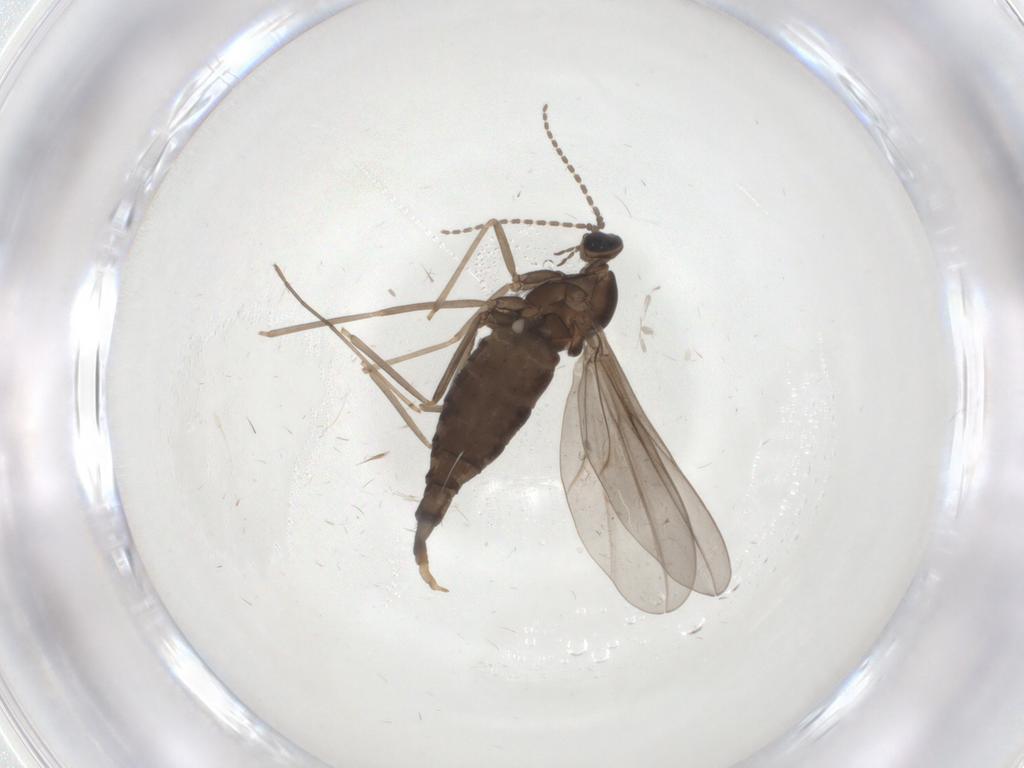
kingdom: Animalia
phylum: Arthropoda
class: Insecta
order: Diptera
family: Cecidomyiidae
